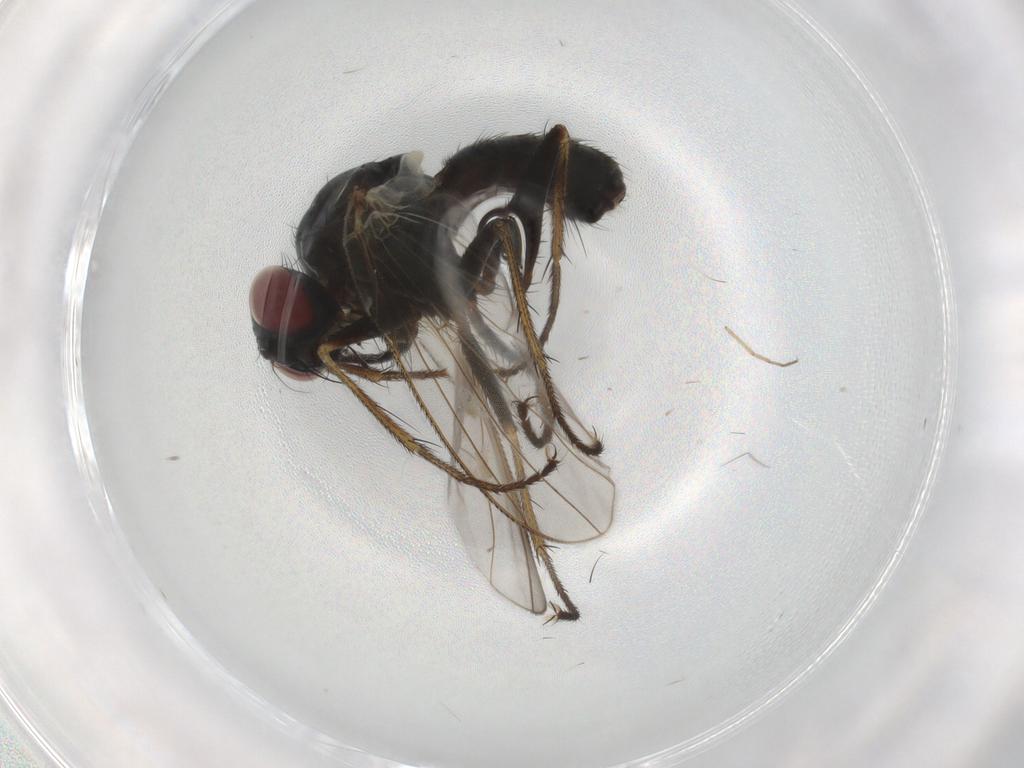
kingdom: Animalia
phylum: Arthropoda
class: Insecta
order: Diptera
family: Muscidae
